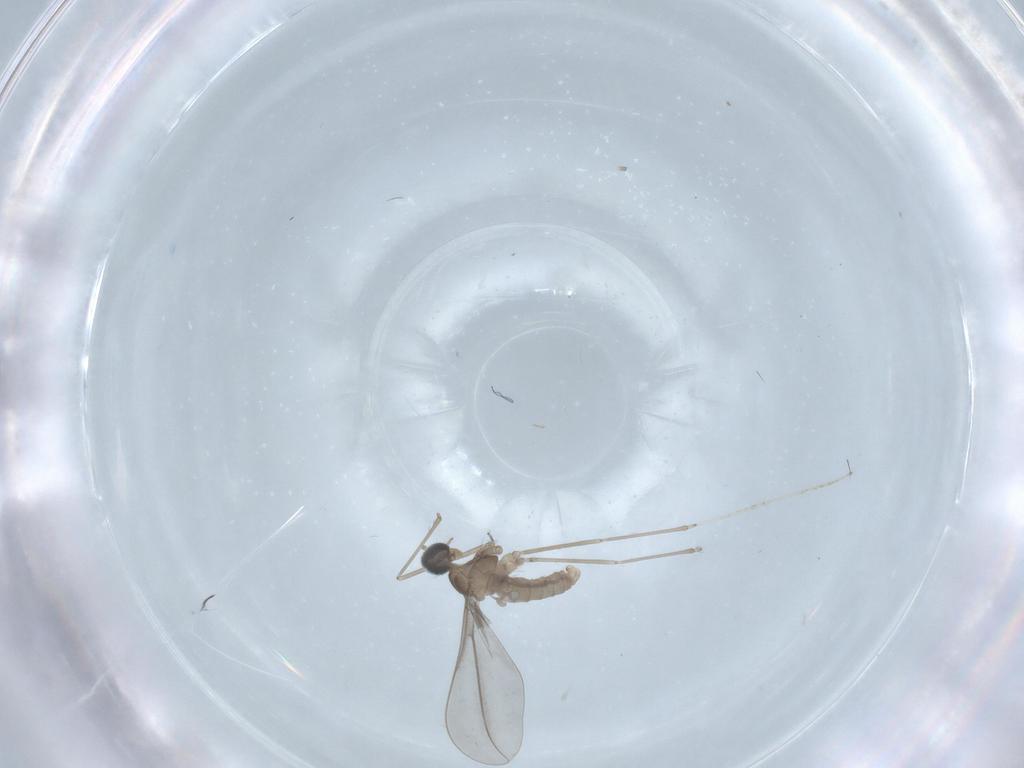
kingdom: Animalia
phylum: Arthropoda
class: Insecta
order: Diptera
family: Cecidomyiidae
